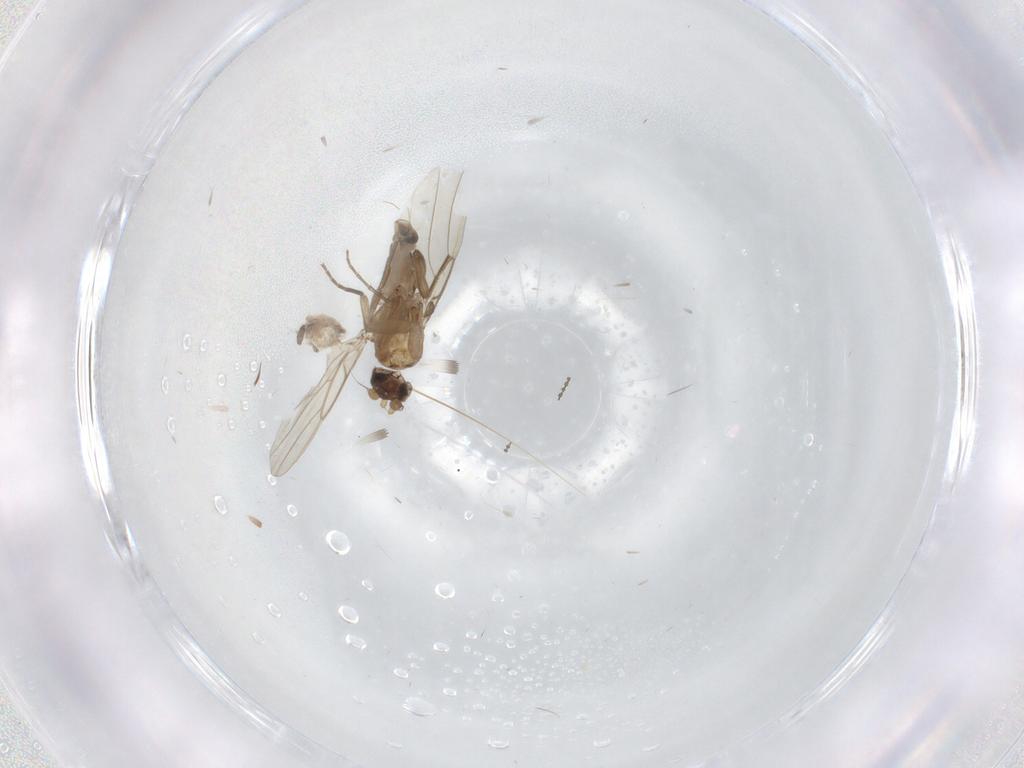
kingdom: Animalia
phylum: Arthropoda
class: Insecta
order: Diptera
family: Phoridae
